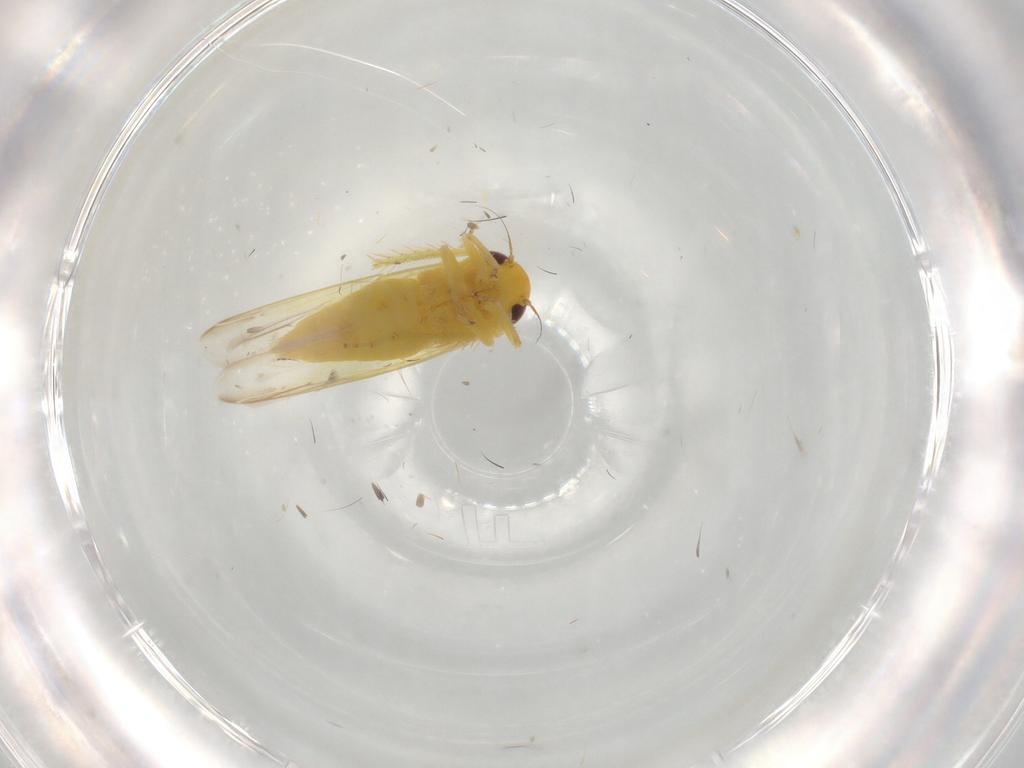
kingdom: Animalia
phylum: Arthropoda
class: Insecta
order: Hemiptera
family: Cicadellidae
